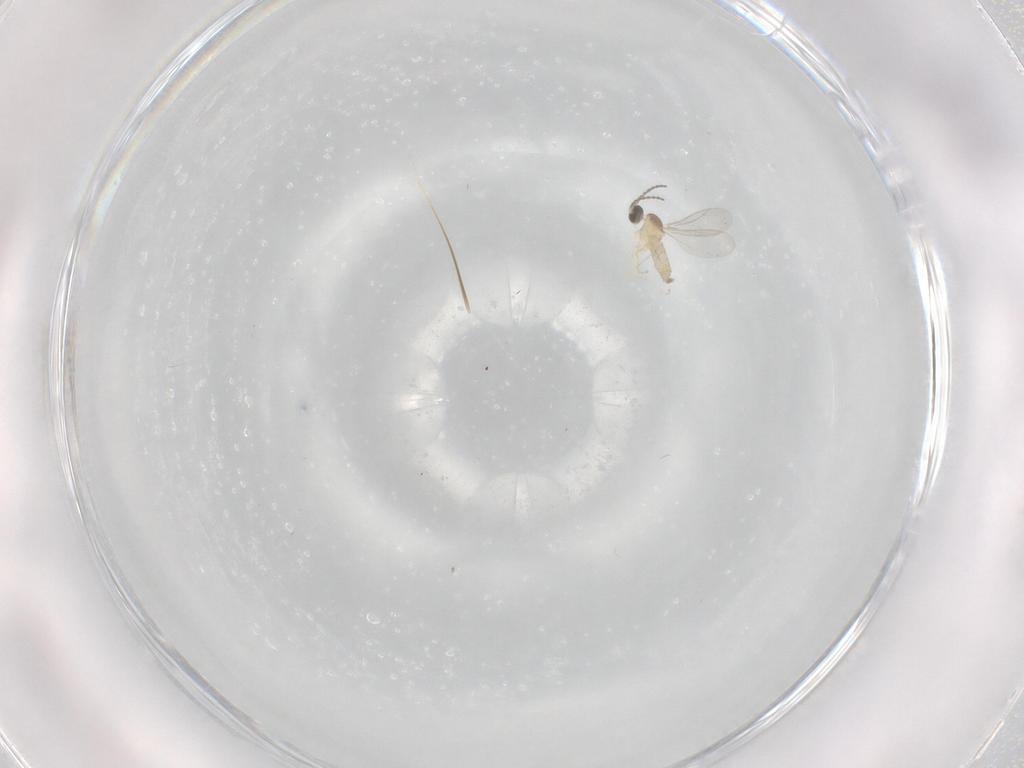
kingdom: Animalia
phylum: Arthropoda
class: Insecta
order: Diptera
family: Cecidomyiidae
